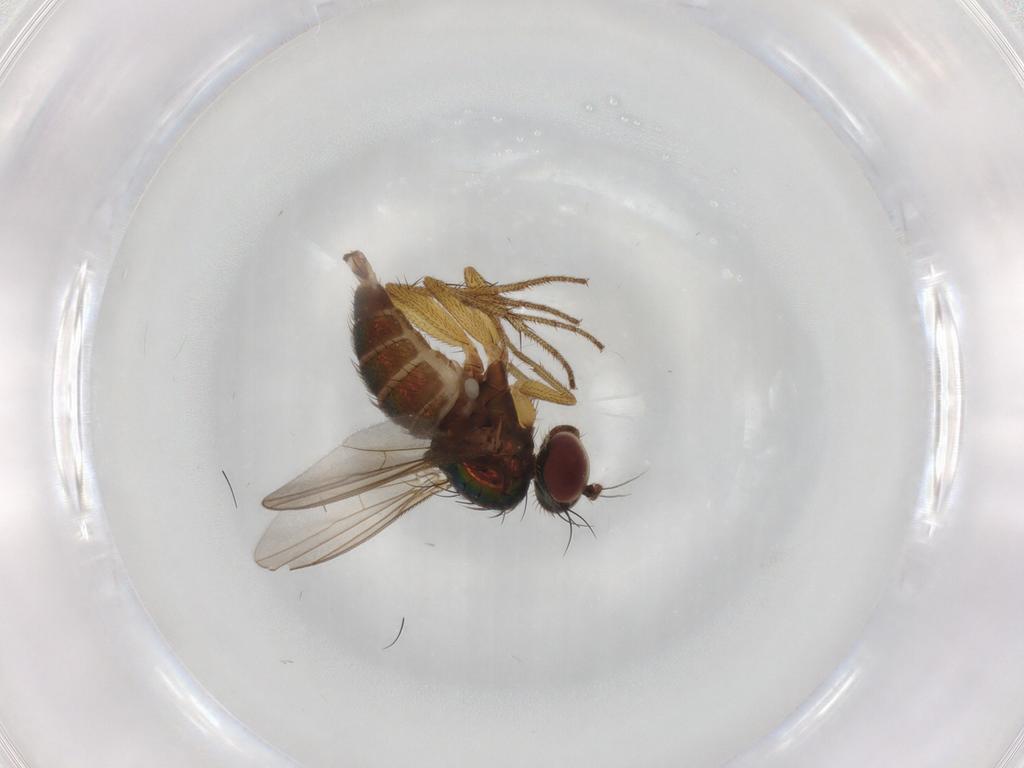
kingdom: Animalia
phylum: Arthropoda
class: Insecta
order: Diptera
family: Dolichopodidae
